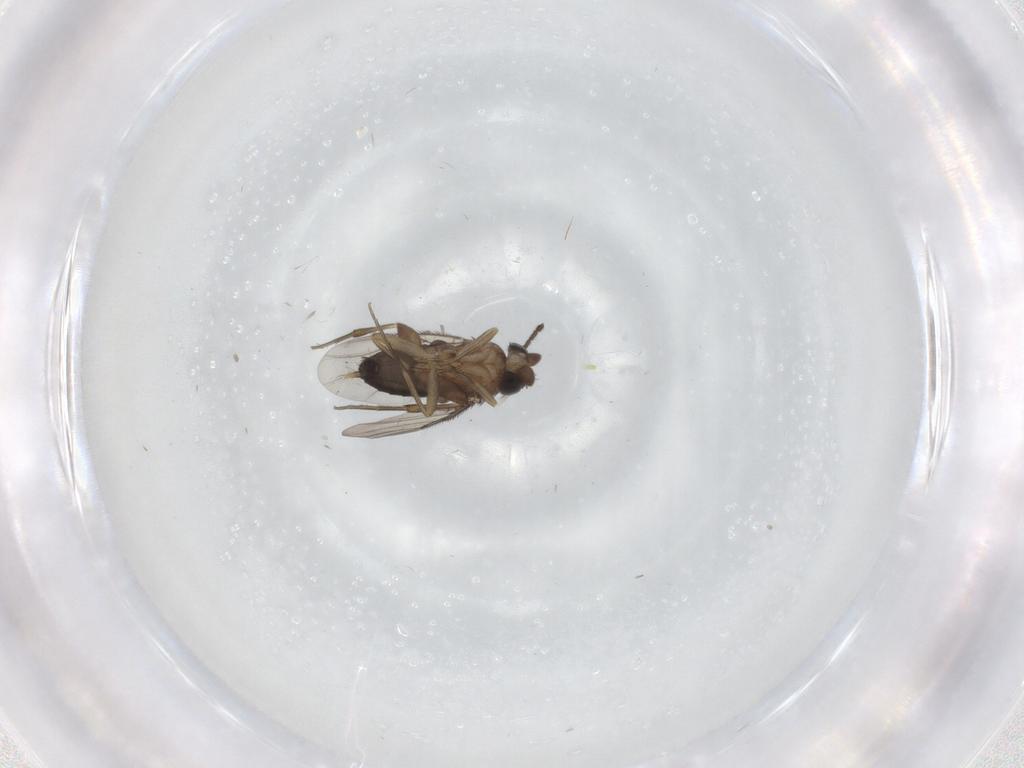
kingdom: Animalia
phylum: Arthropoda
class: Insecta
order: Diptera
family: Phoridae
